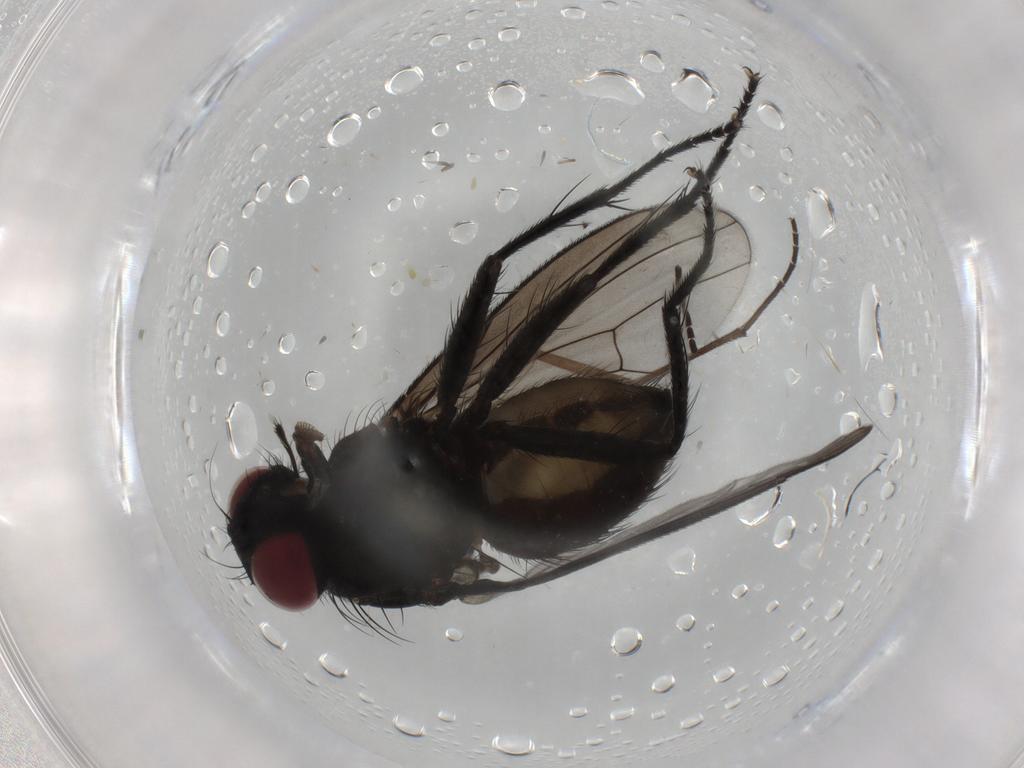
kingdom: Animalia
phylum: Arthropoda
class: Insecta
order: Diptera
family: Muscidae
